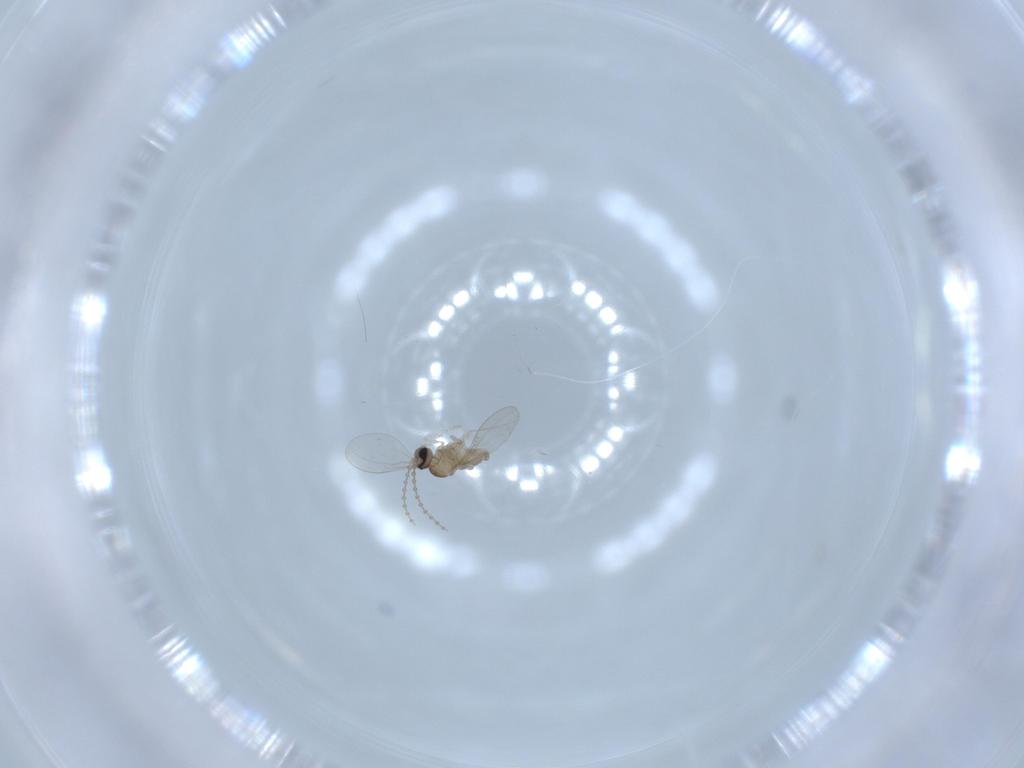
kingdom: Animalia
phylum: Arthropoda
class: Insecta
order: Diptera
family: Cecidomyiidae
